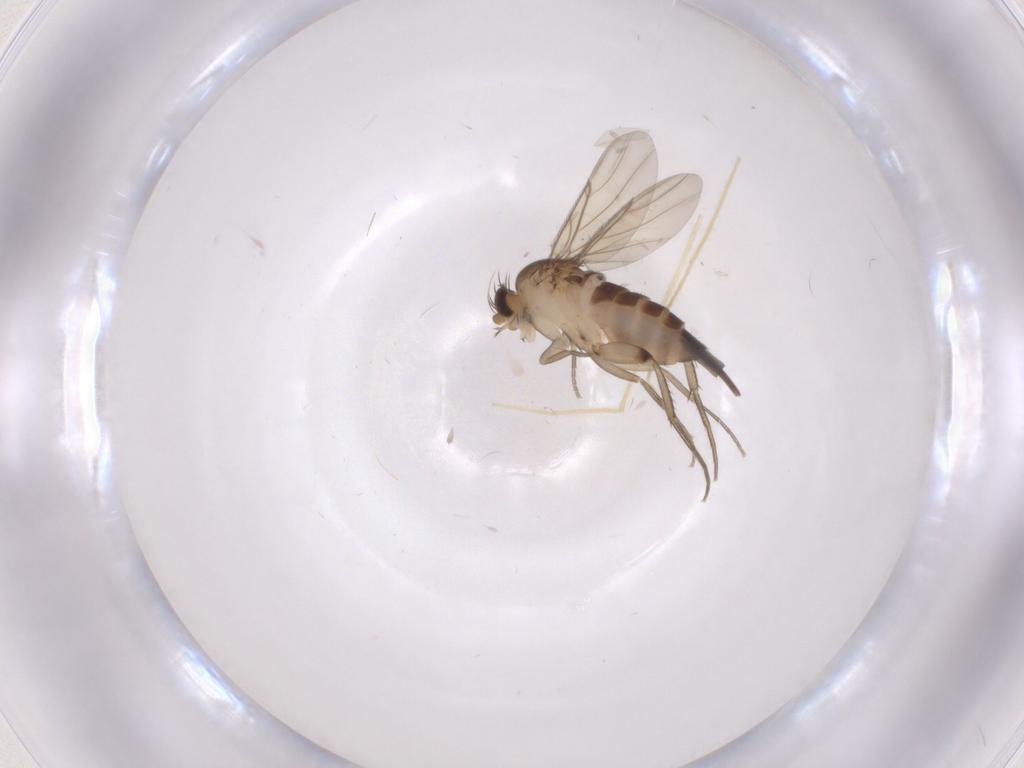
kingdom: Animalia
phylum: Arthropoda
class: Insecta
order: Diptera
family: Chironomidae
